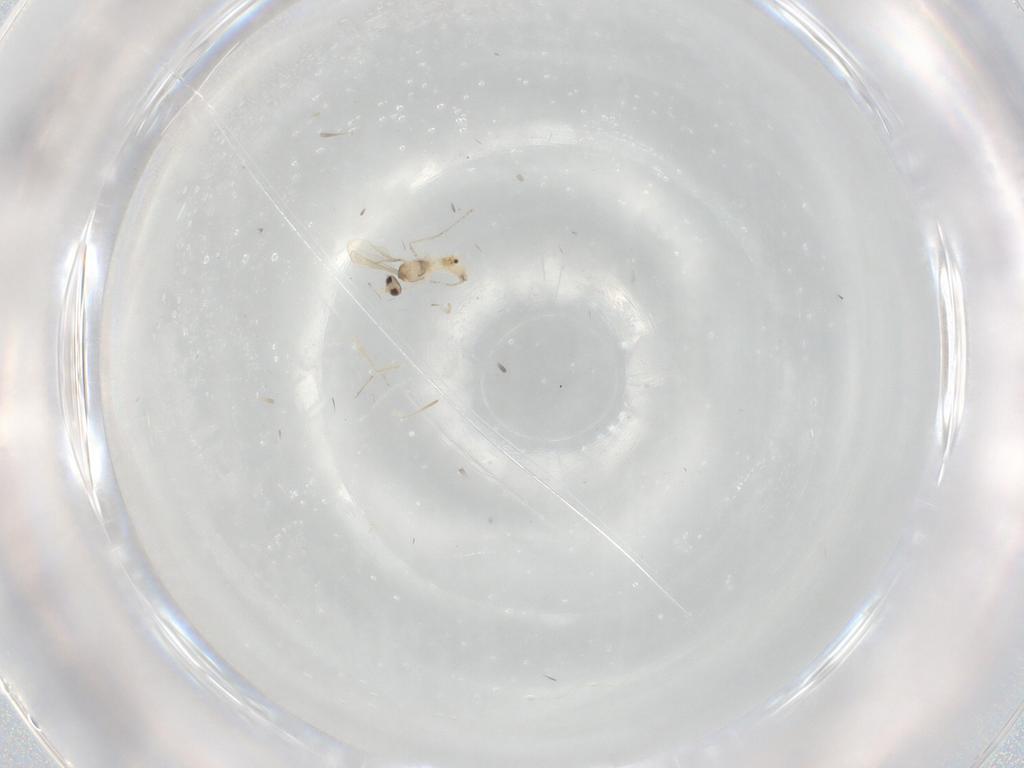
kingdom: Animalia
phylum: Arthropoda
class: Insecta
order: Diptera
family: Cecidomyiidae
